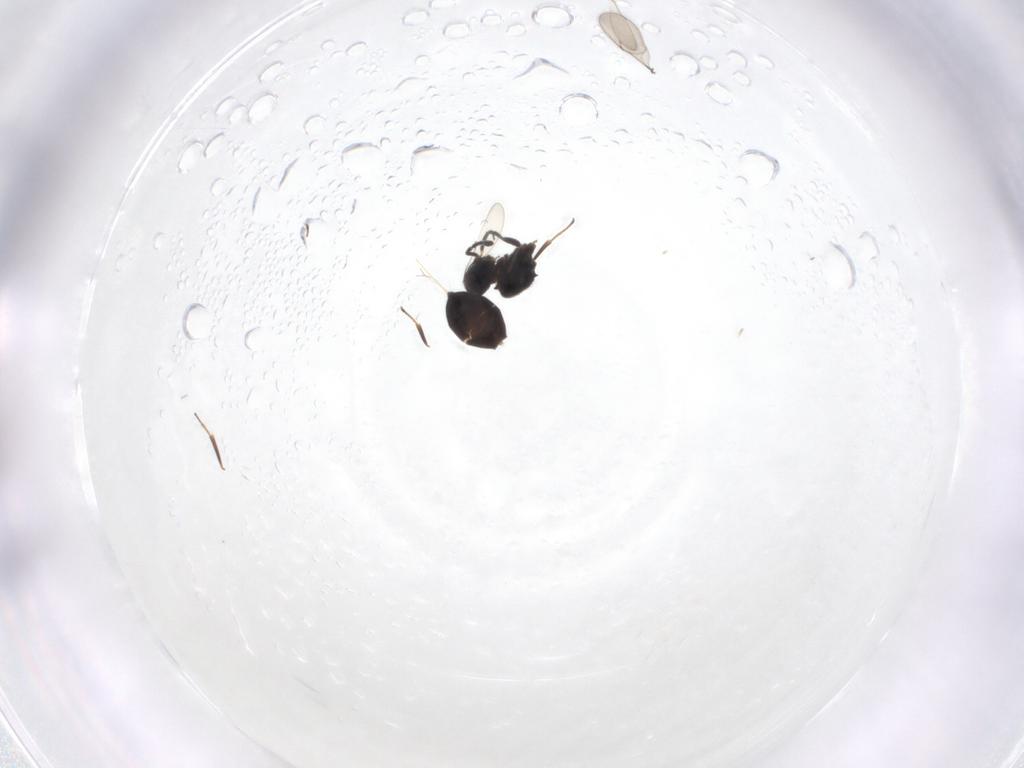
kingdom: Animalia
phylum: Arthropoda
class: Insecta
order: Hymenoptera
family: Scelionidae
